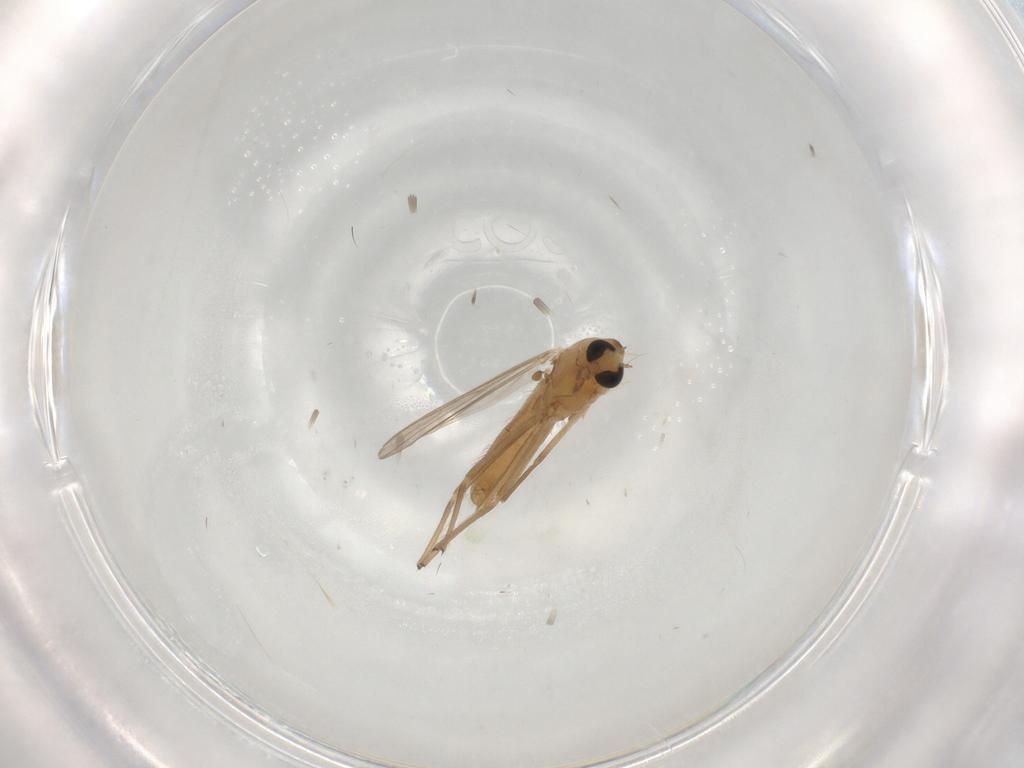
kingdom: Animalia
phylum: Arthropoda
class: Insecta
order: Diptera
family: Chironomidae
